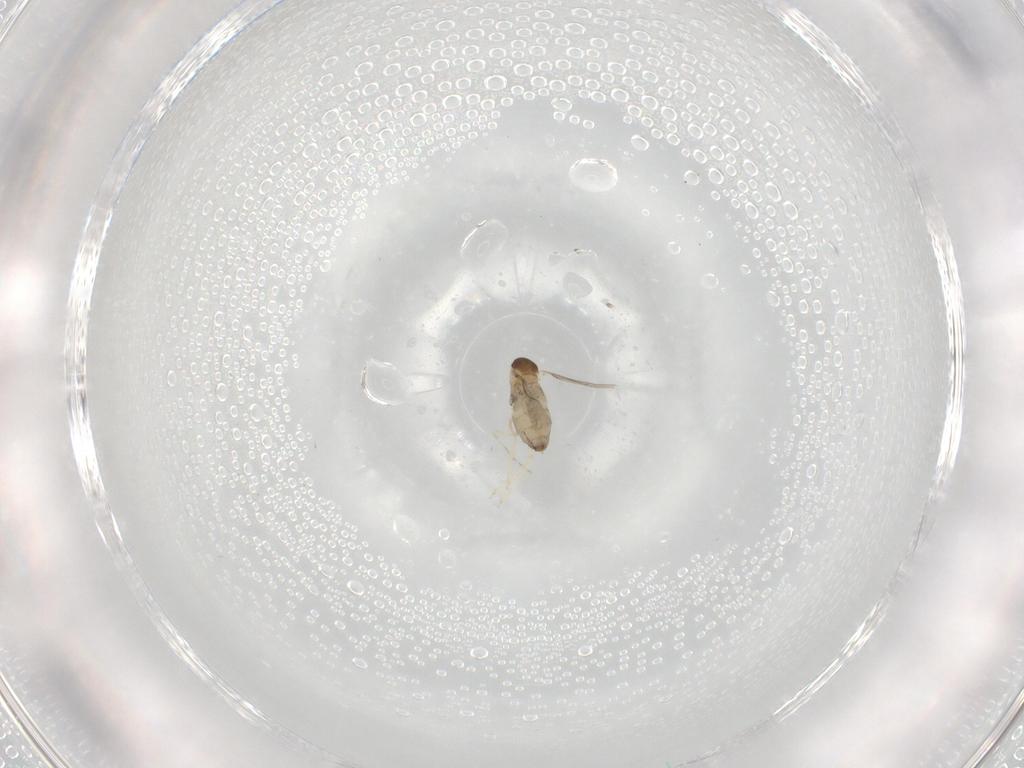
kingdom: Animalia
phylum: Arthropoda
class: Insecta
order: Diptera
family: Cecidomyiidae
